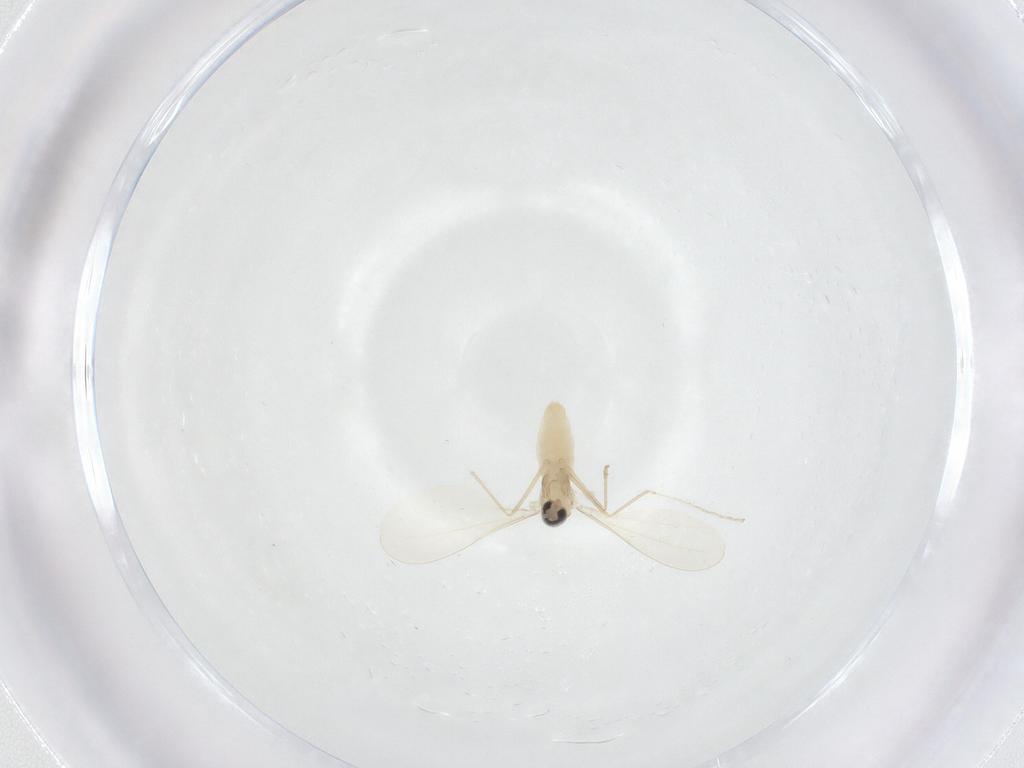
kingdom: Animalia
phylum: Arthropoda
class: Insecta
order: Diptera
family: Cecidomyiidae
